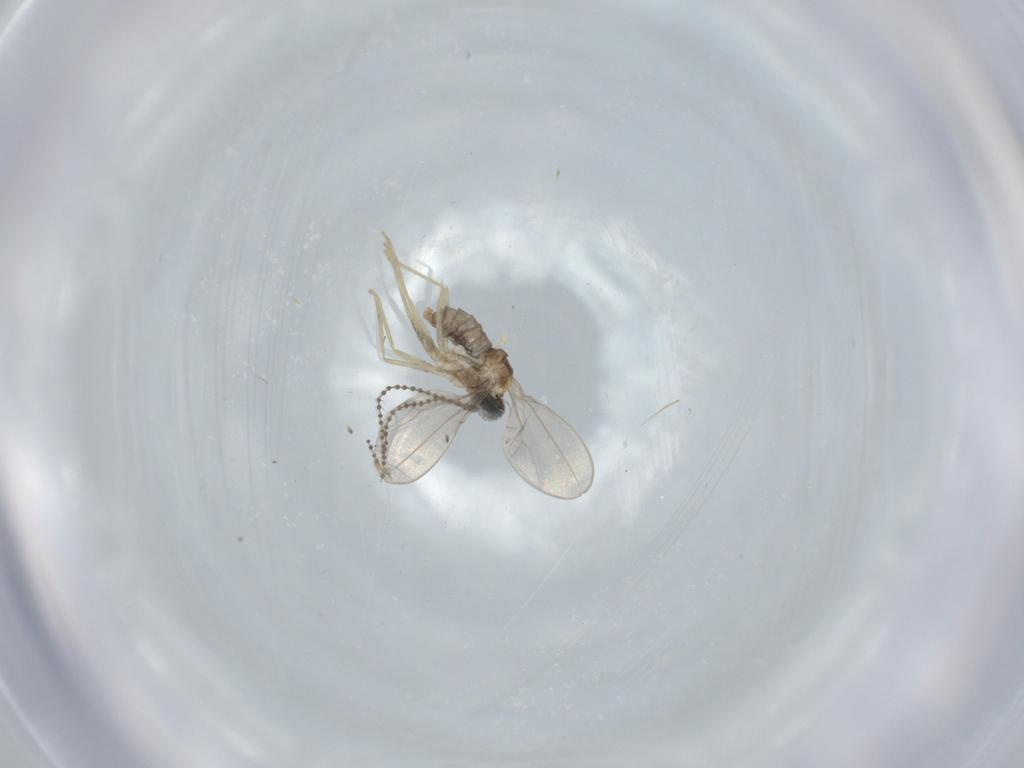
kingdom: Animalia
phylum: Arthropoda
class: Insecta
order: Diptera
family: Cecidomyiidae
